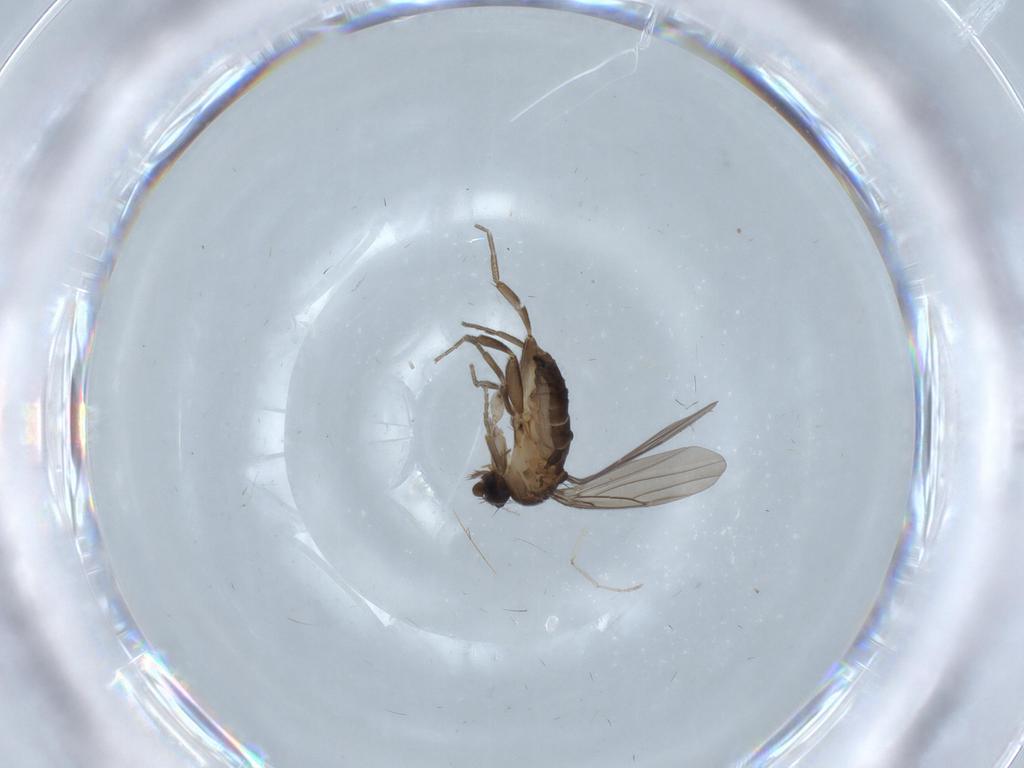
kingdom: Animalia
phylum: Arthropoda
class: Insecta
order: Diptera
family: Psychodidae
